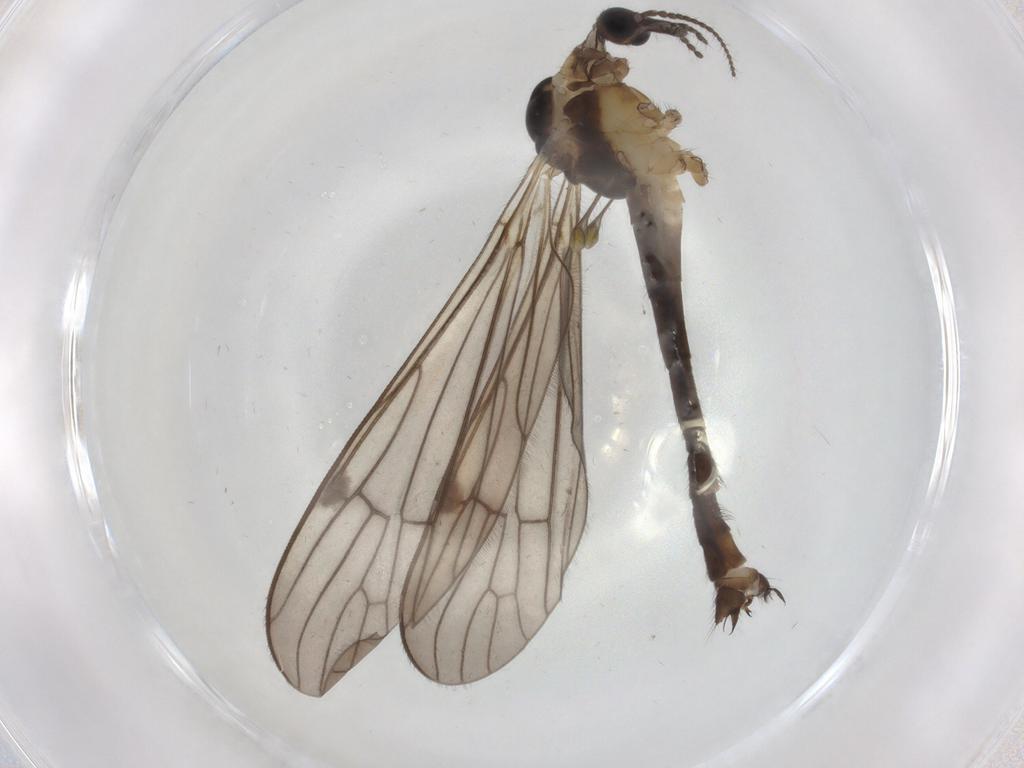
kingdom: Animalia
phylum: Arthropoda
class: Insecta
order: Diptera
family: Limoniidae
